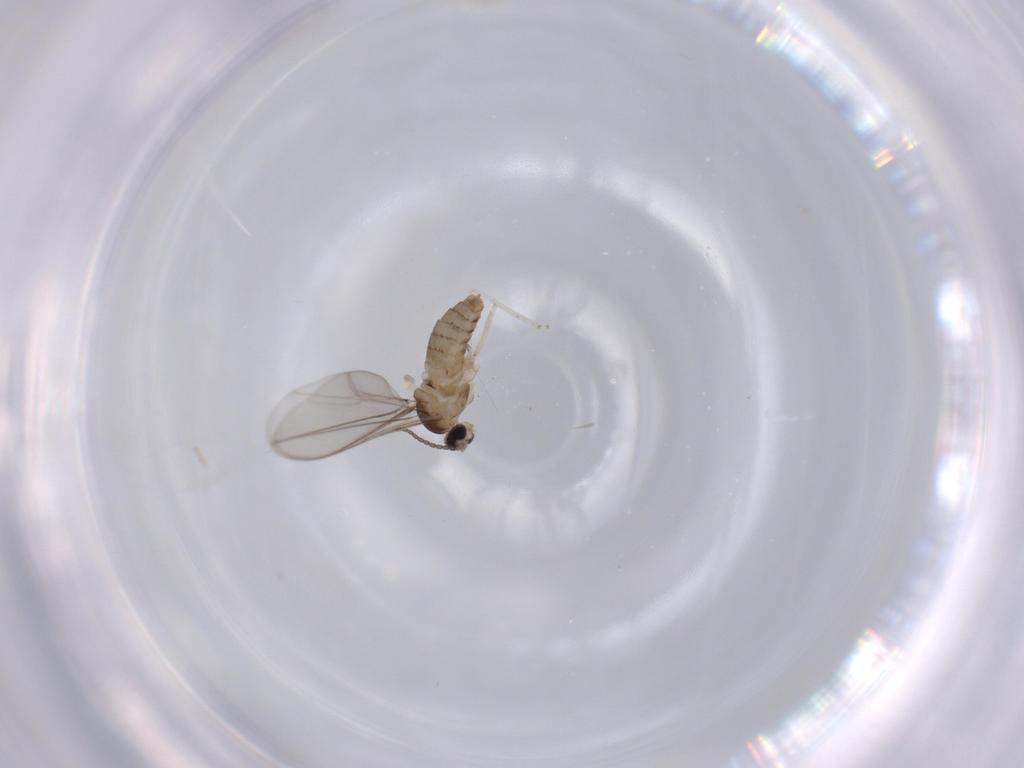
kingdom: Animalia
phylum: Arthropoda
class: Insecta
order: Diptera
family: Cecidomyiidae
